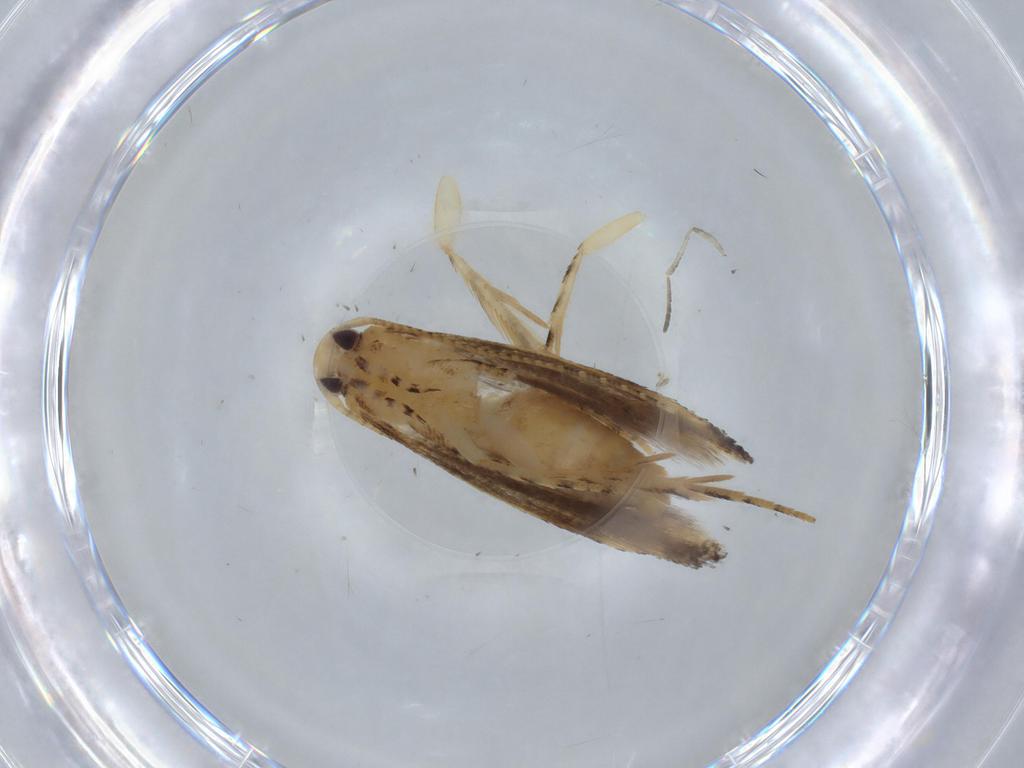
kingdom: Animalia
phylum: Arthropoda
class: Insecta
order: Lepidoptera
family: Gelechiidae
